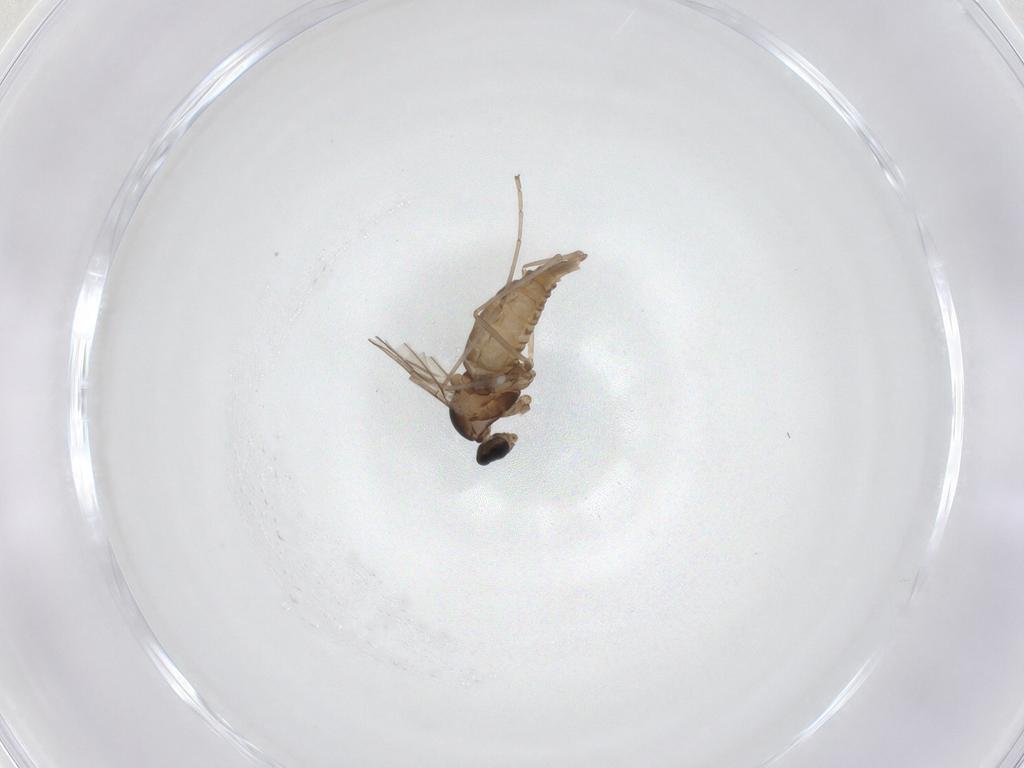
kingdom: Animalia
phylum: Arthropoda
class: Insecta
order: Diptera
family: Cecidomyiidae
